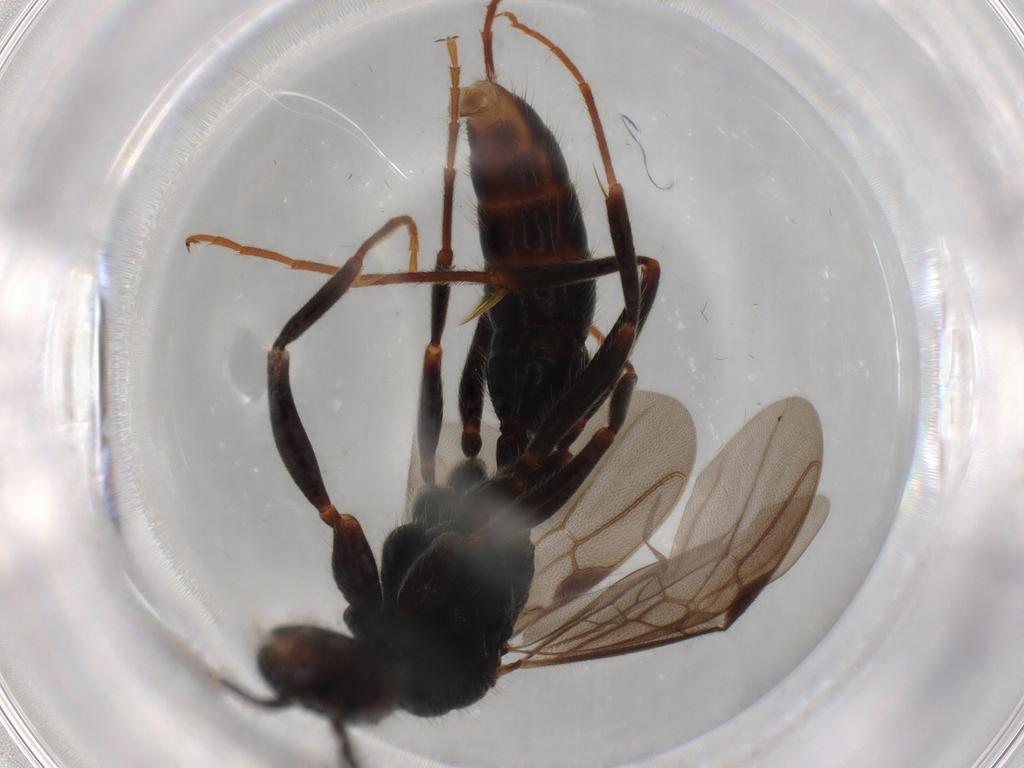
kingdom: Animalia
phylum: Arthropoda
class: Insecta
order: Hymenoptera
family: Formicidae
